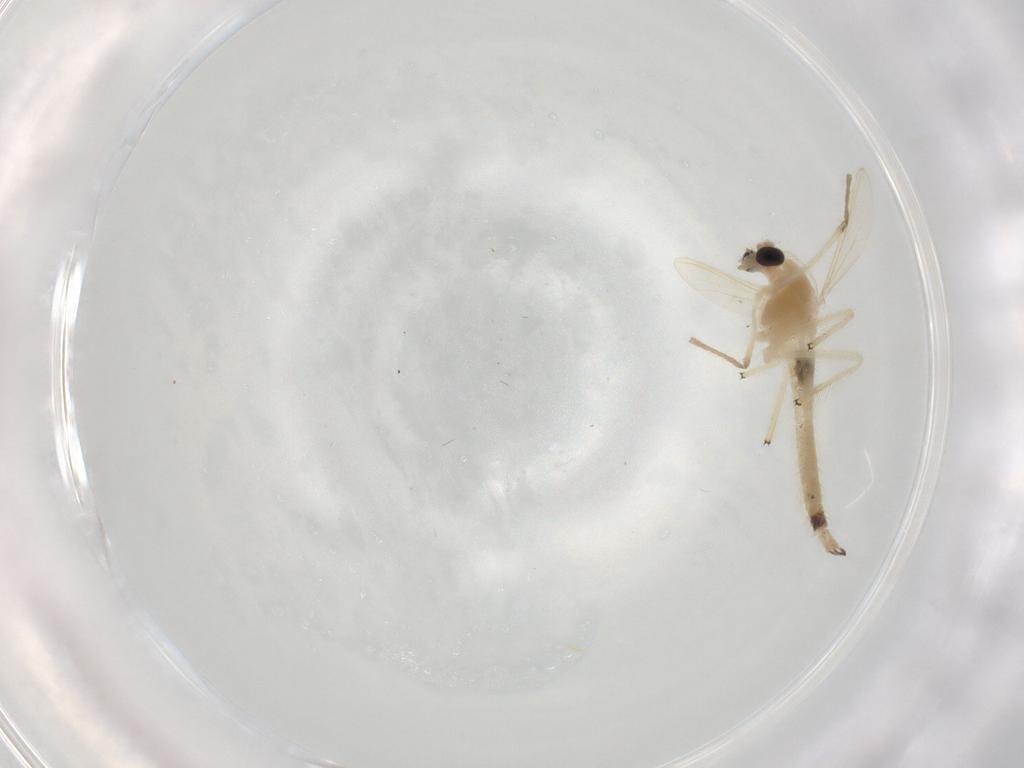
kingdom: Animalia
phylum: Arthropoda
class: Insecta
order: Diptera
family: Chironomidae
